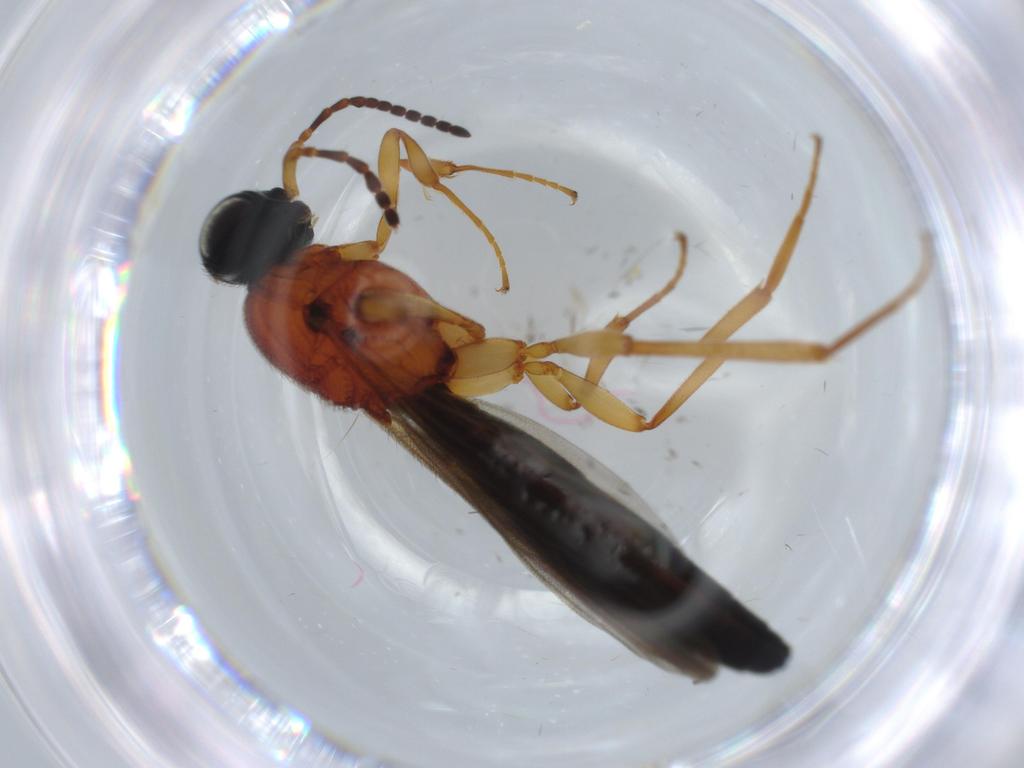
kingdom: Animalia
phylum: Arthropoda
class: Insecta
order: Hymenoptera
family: Scelionidae
